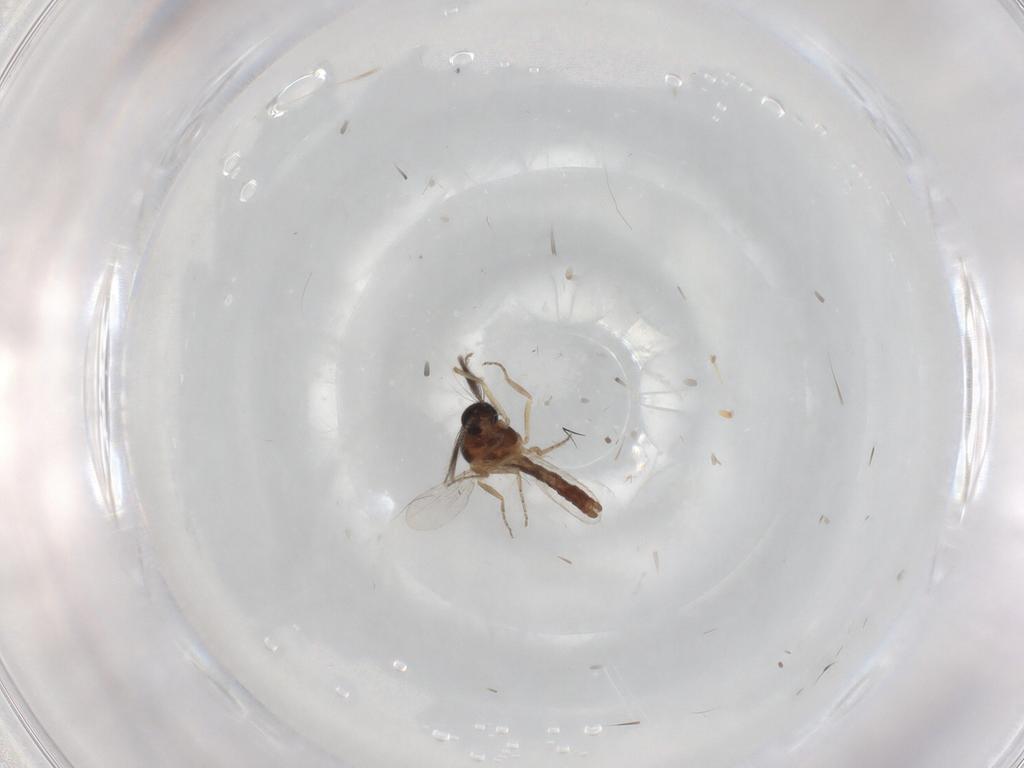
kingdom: Animalia
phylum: Arthropoda
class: Insecta
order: Diptera
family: Ceratopogonidae
